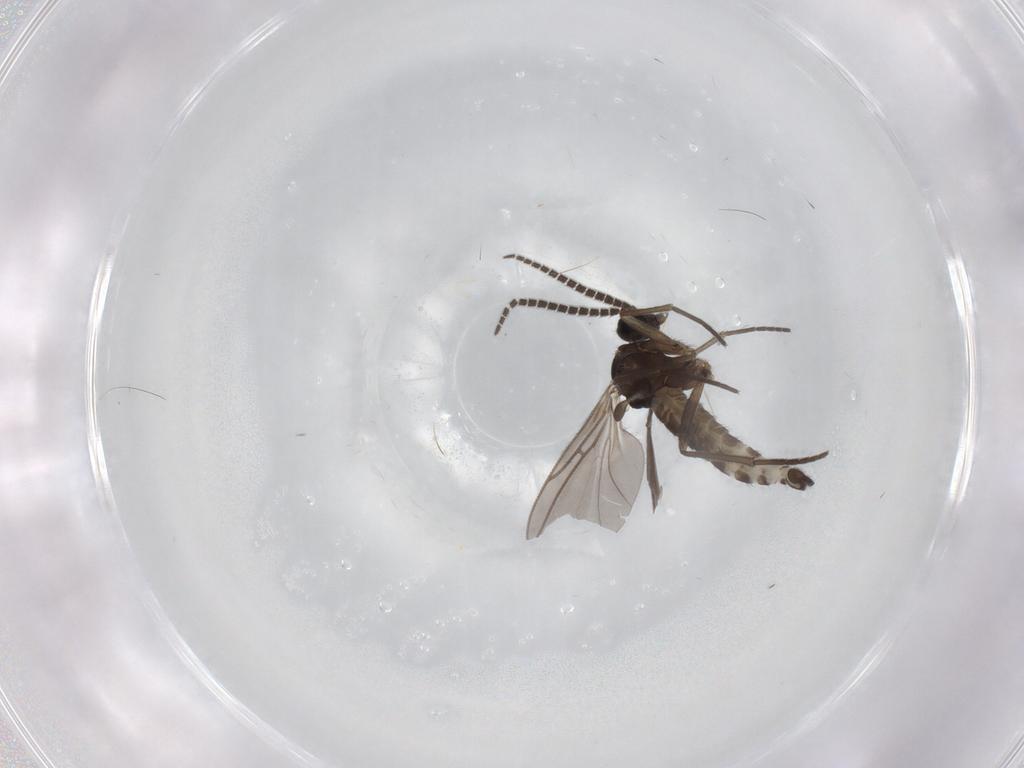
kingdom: Animalia
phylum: Arthropoda
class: Insecta
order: Diptera
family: Sciaridae
